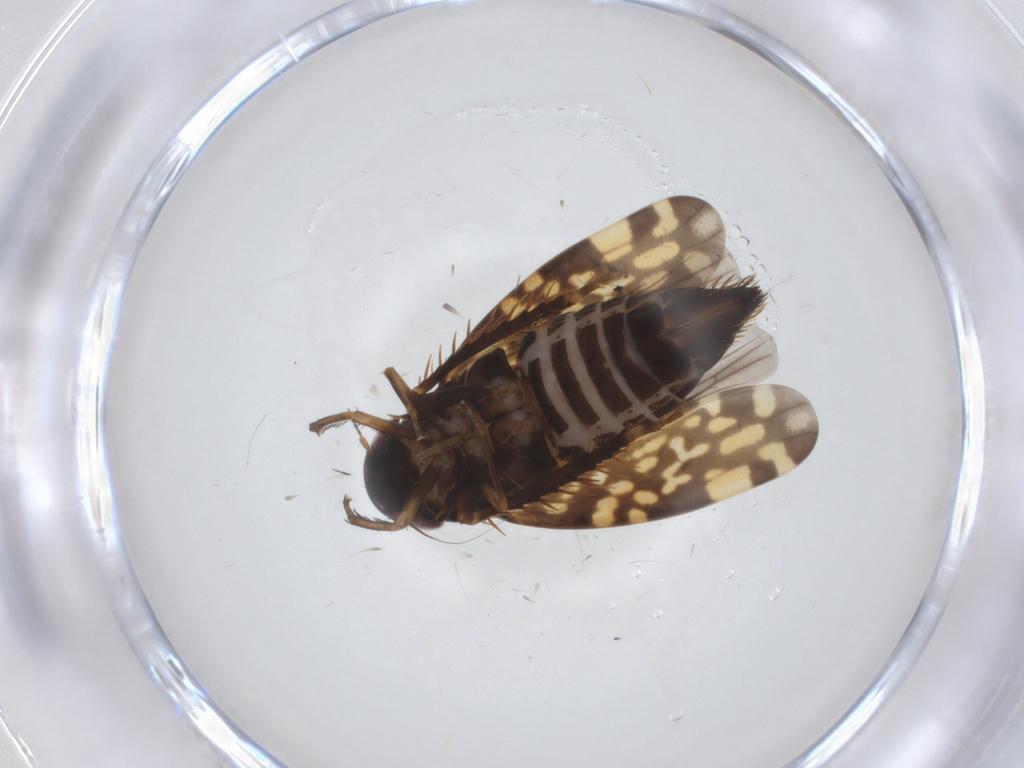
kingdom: Animalia
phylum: Arthropoda
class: Insecta
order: Hemiptera
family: Cicadellidae
